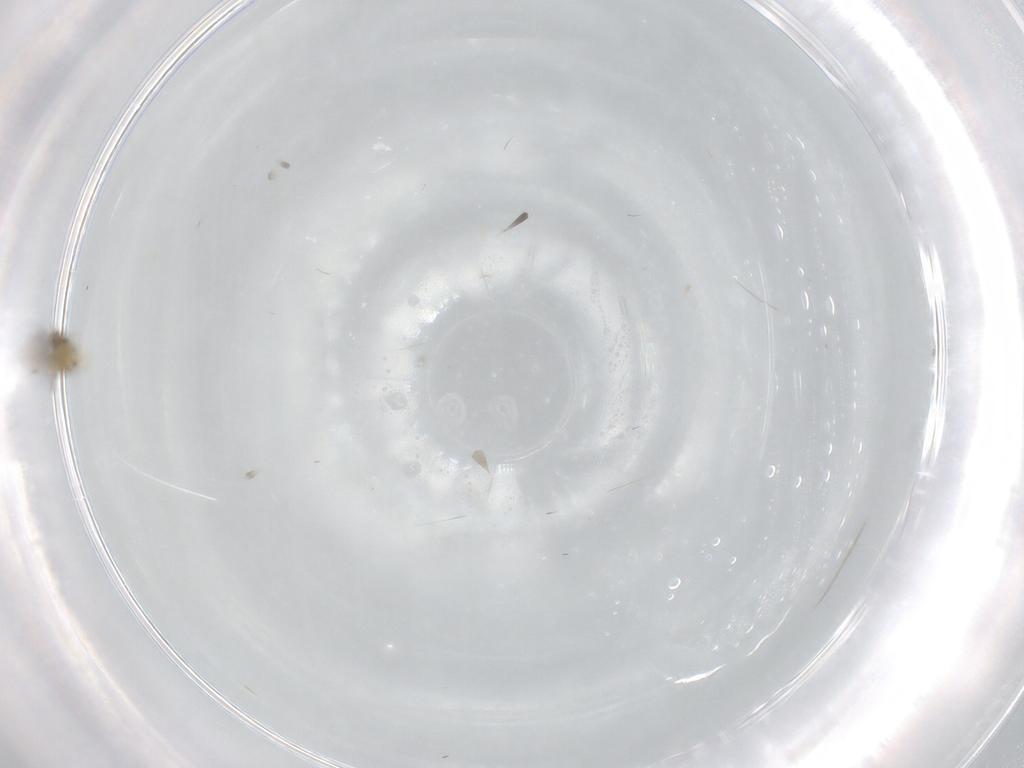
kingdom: Animalia
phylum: Arthropoda
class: Insecta
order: Hymenoptera
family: Trichogrammatidae
